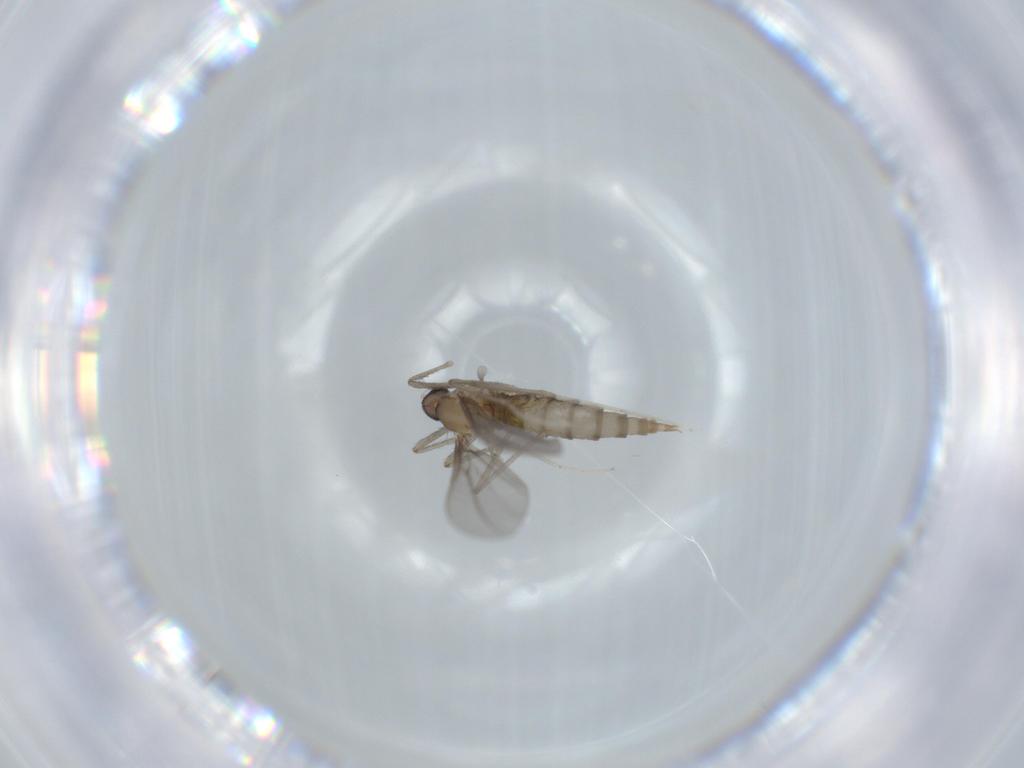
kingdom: Animalia
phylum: Arthropoda
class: Insecta
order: Diptera
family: Cecidomyiidae
